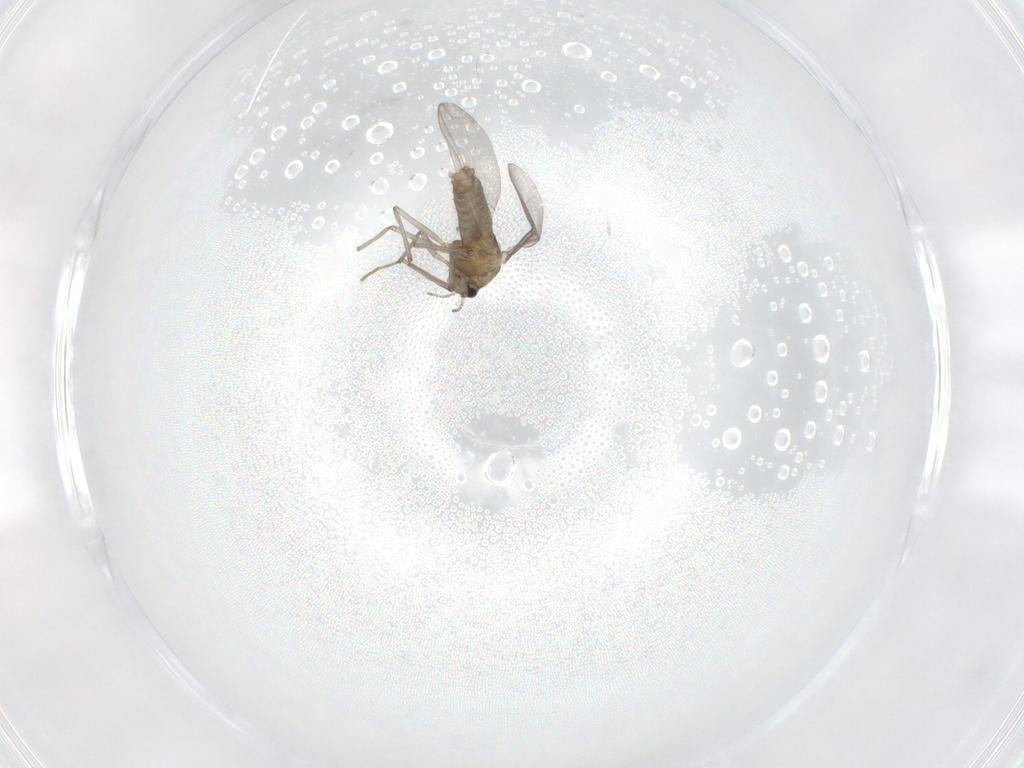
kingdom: Animalia
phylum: Arthropoda
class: Insecta
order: Diptera
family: Chironomidae
